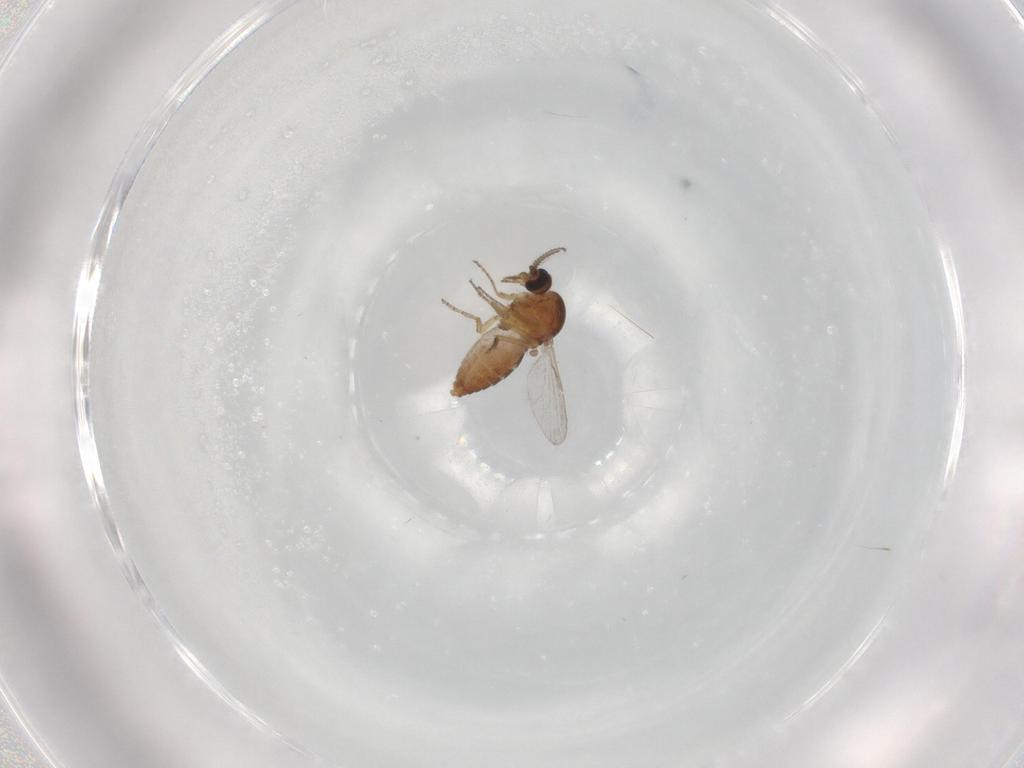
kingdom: Animalia
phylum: Arthropoda
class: Insecta
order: Diptera
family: Ceratopogonidae
